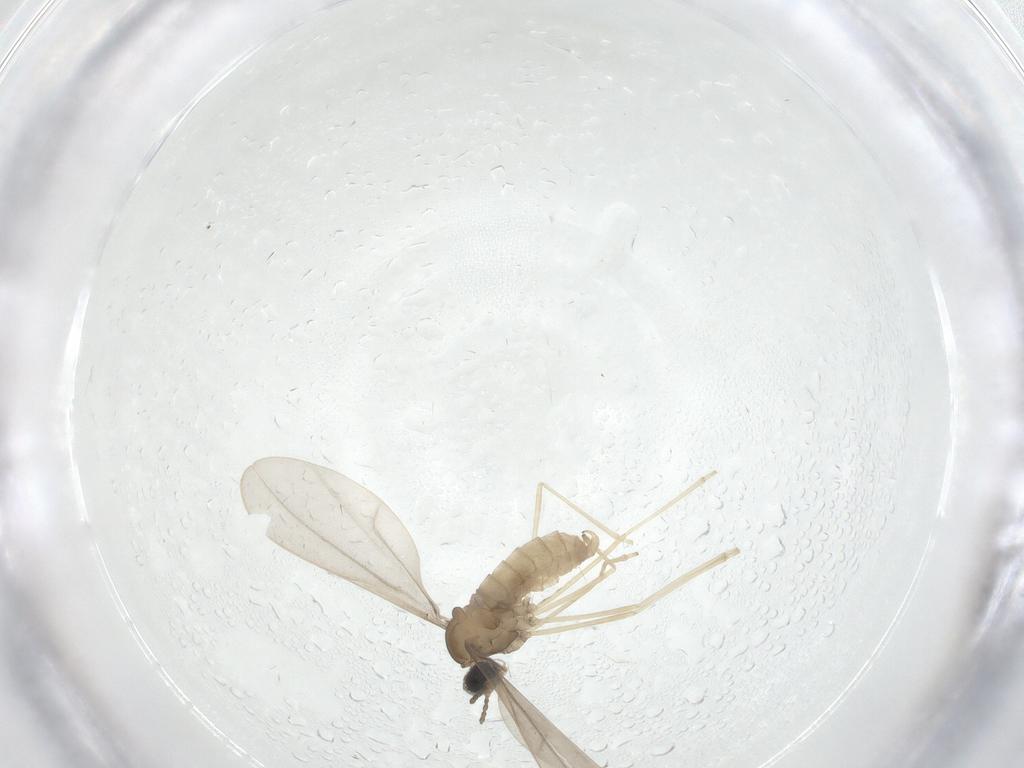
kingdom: Animalia
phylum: Arthropoda
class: Insecta
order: Diptera
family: Cecidomyiidae
